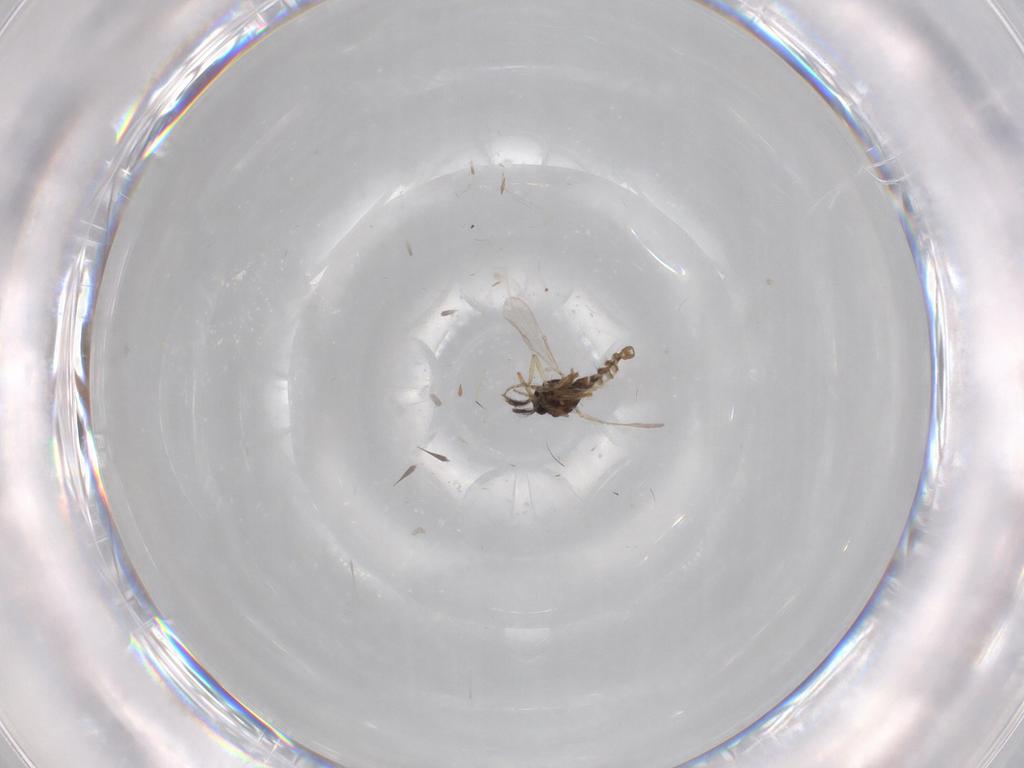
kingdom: Animalia
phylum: Arthropoda
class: Insecta
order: Diptera
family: Ceratopogonidae
